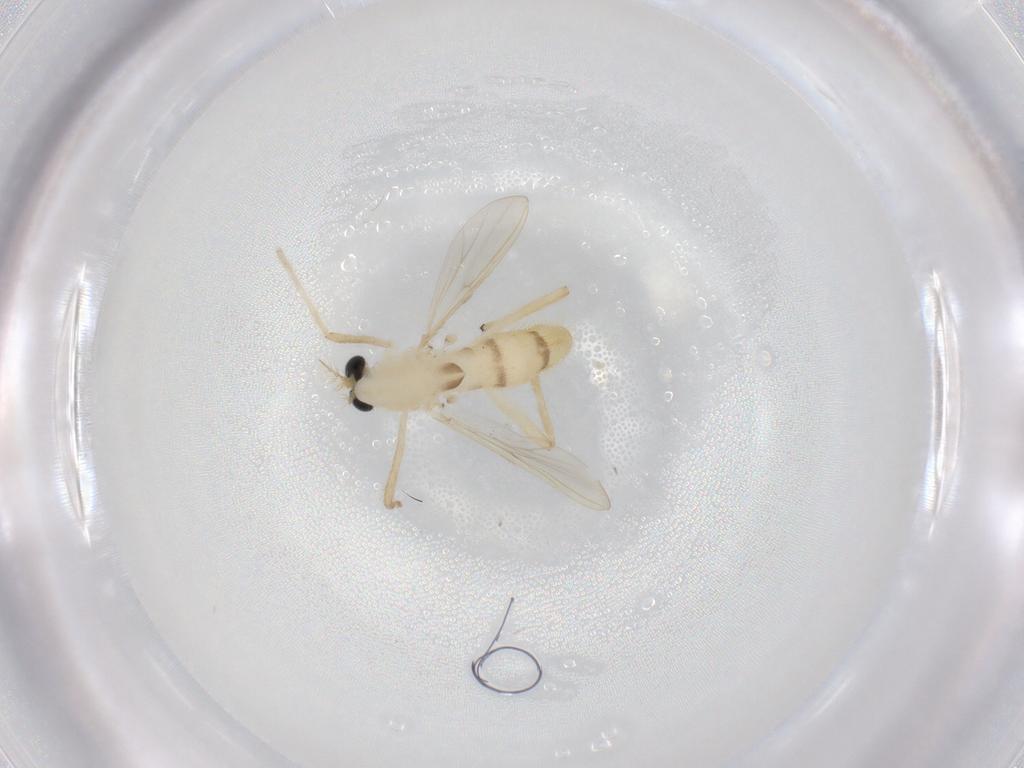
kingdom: Animalia
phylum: Arthropoda
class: Insecta
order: Diptera
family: Chironomidae
